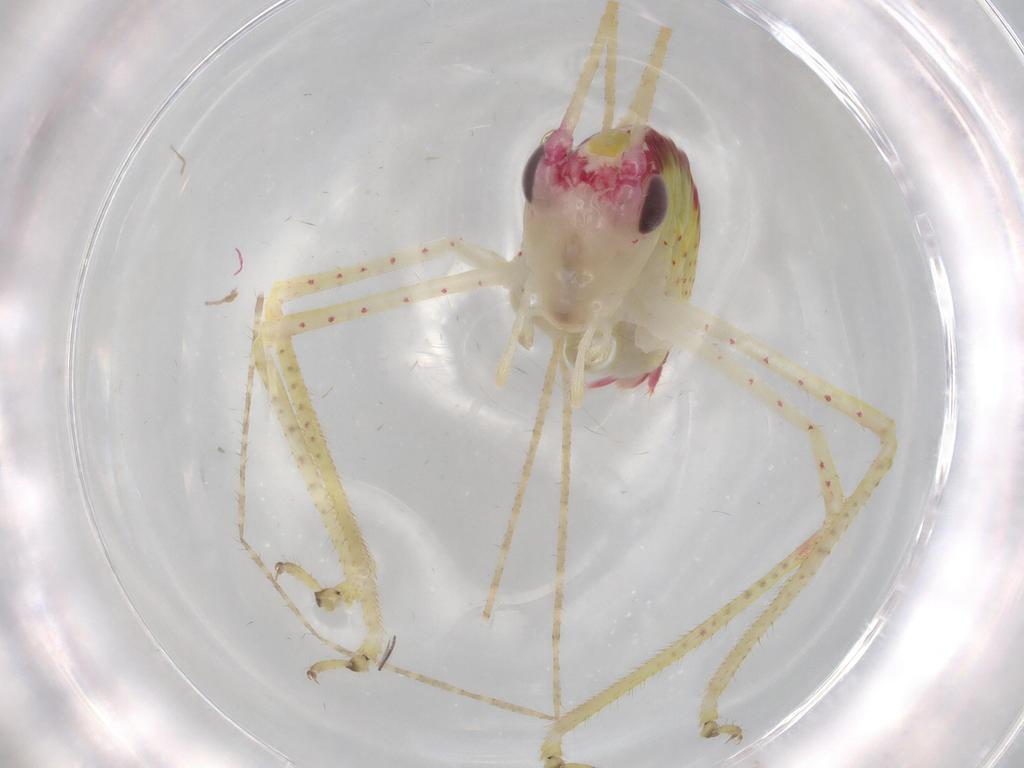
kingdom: Animalia
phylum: Arthropoda
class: Insecta
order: Orthoptera
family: Tettigoniidae
